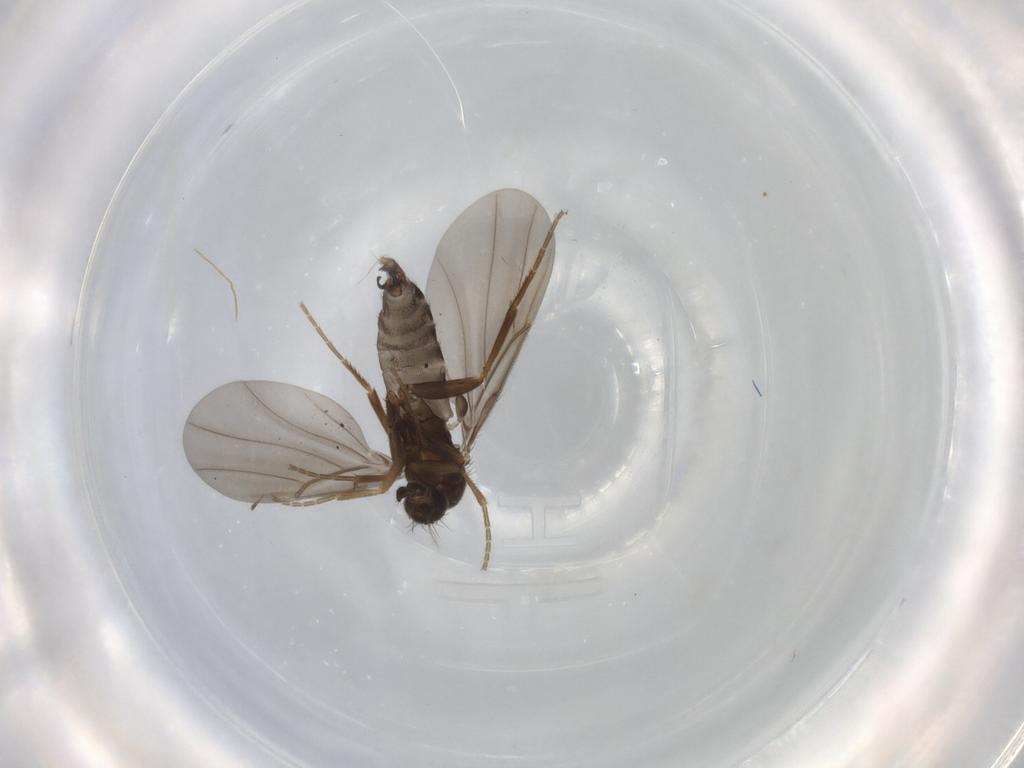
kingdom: Animalia
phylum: Arthropoda
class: Insecta
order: Diptera
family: Phoridae
